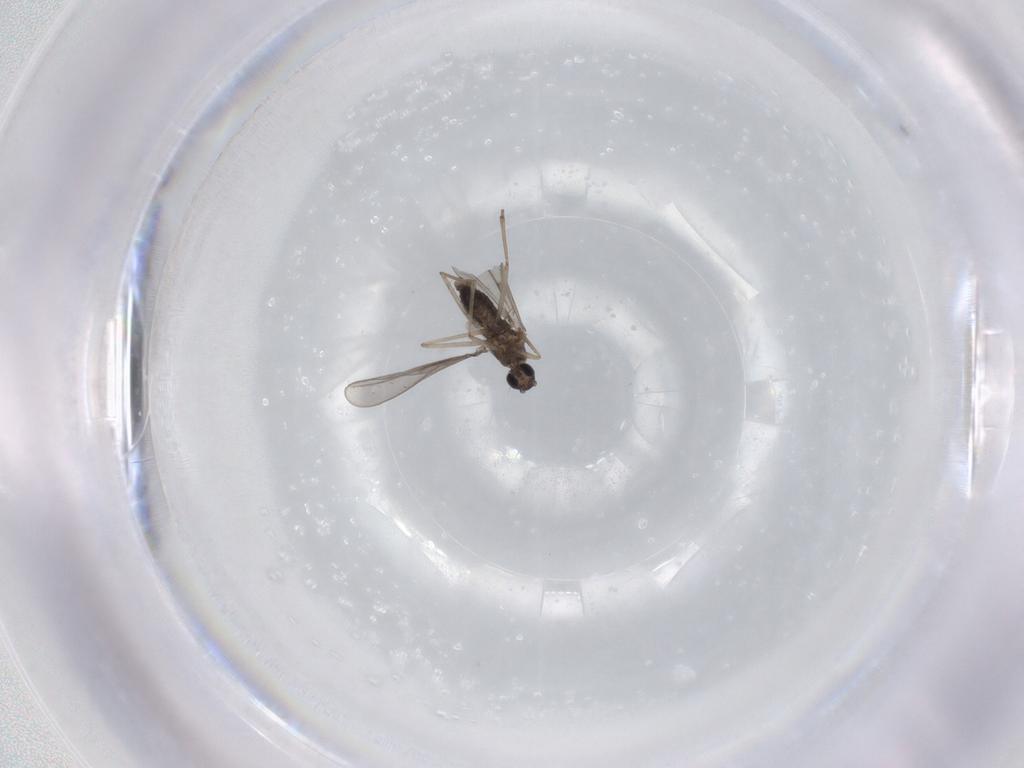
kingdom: Animalia
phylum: Arthropoda
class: Insecta
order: Diptera
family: Cecidomyiidae
